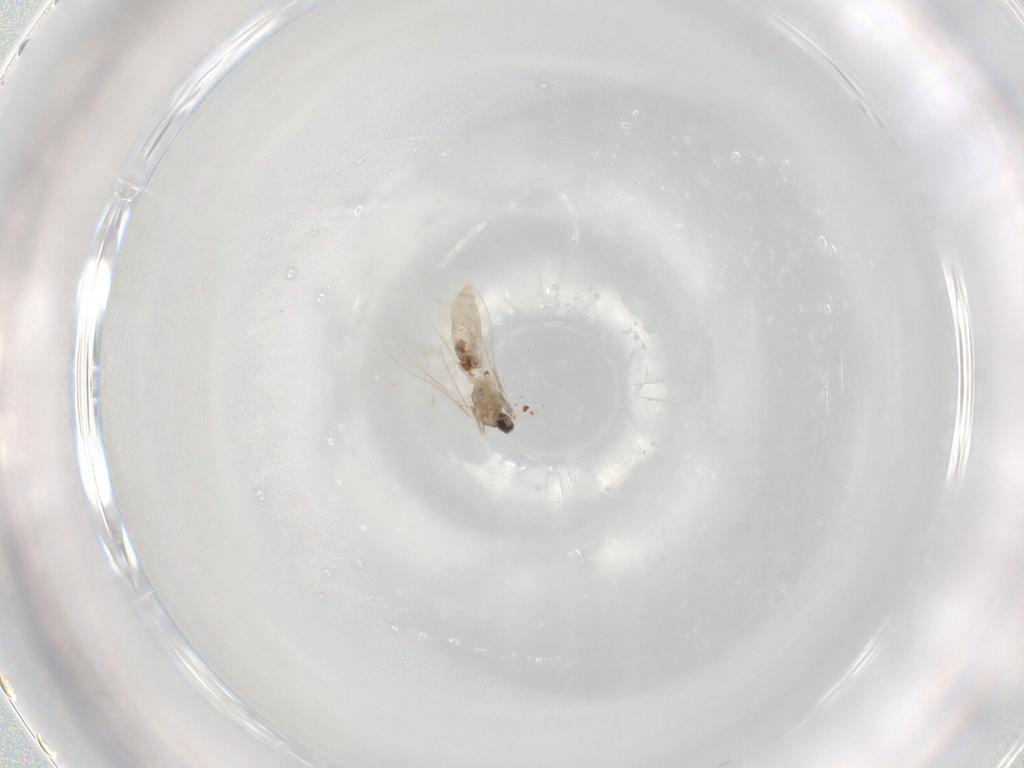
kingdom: Animalia
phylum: Arthropoda
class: Insecta
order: Diptera
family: Cecidomyiidae
